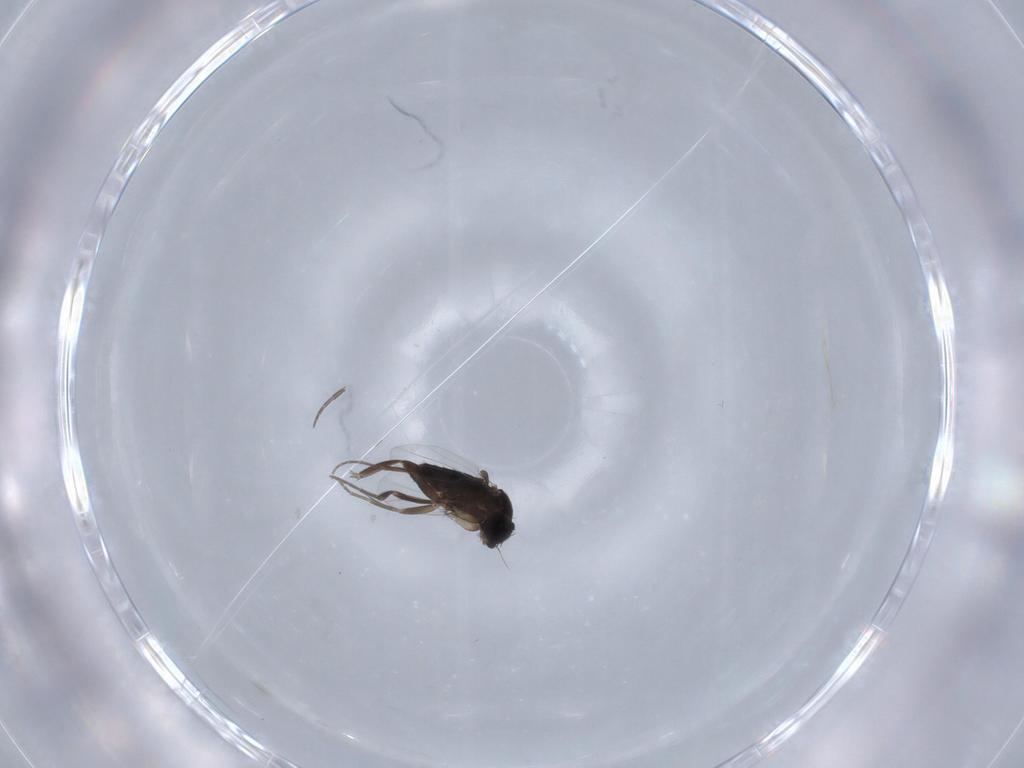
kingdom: Animalia
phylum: Arthropoda
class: Insecta
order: Diptera
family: Phoridae
